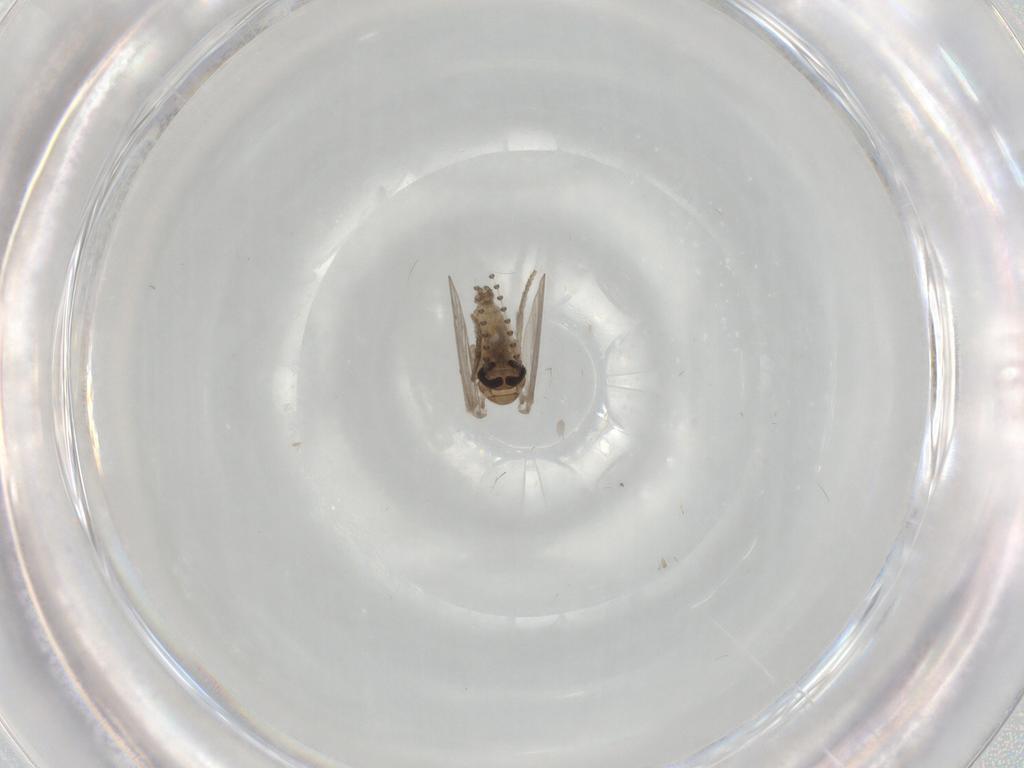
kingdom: Animalia
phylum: Arthropoda
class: Insecta
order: Diptera
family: Psychodidae
